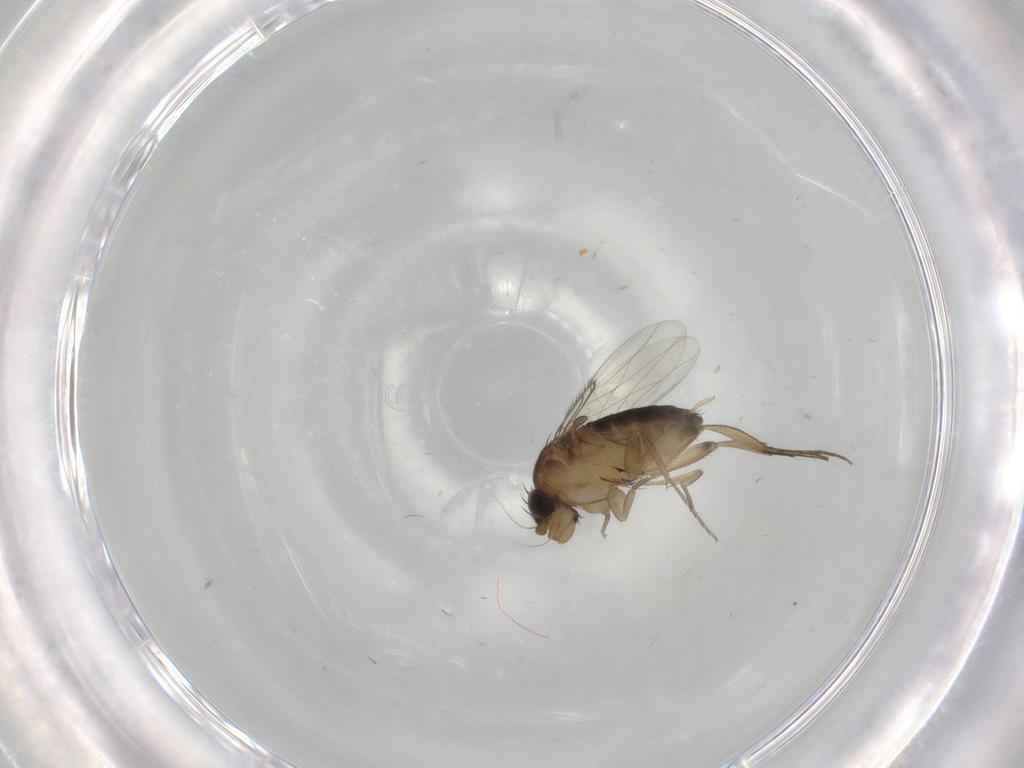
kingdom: Animalia
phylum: Arthropoda
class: Insecta
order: Diptera
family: Phoridae
